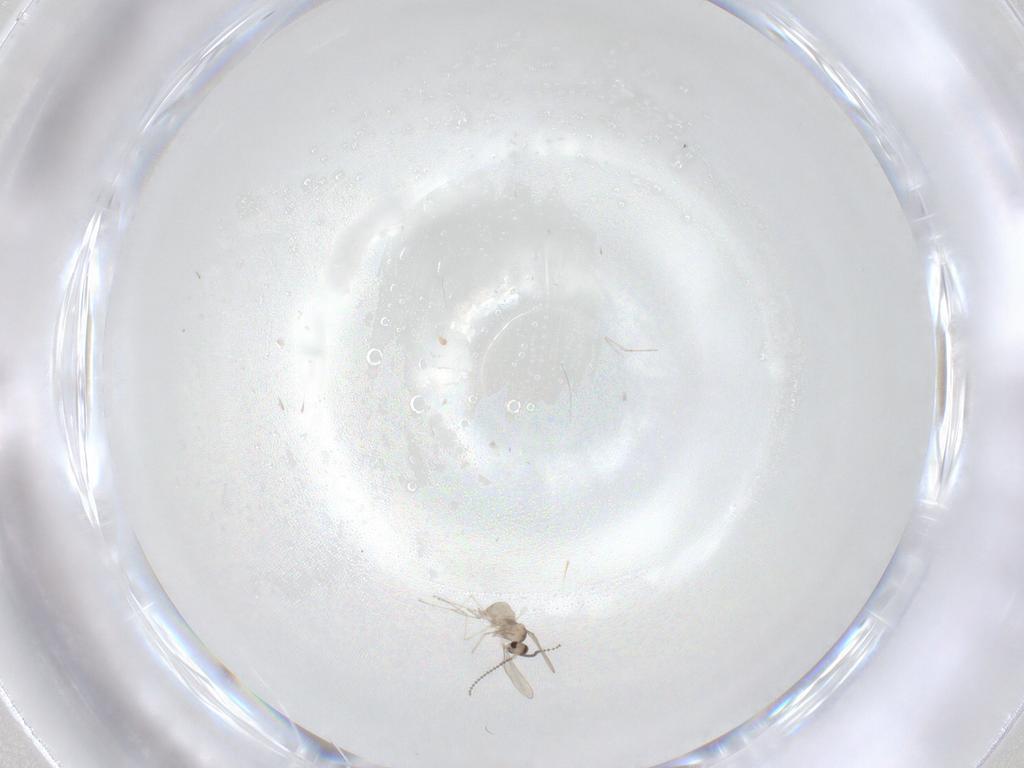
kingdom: Animalia
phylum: Arthropoda
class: Insecta
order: Diptera
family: Cecidomyiidae
